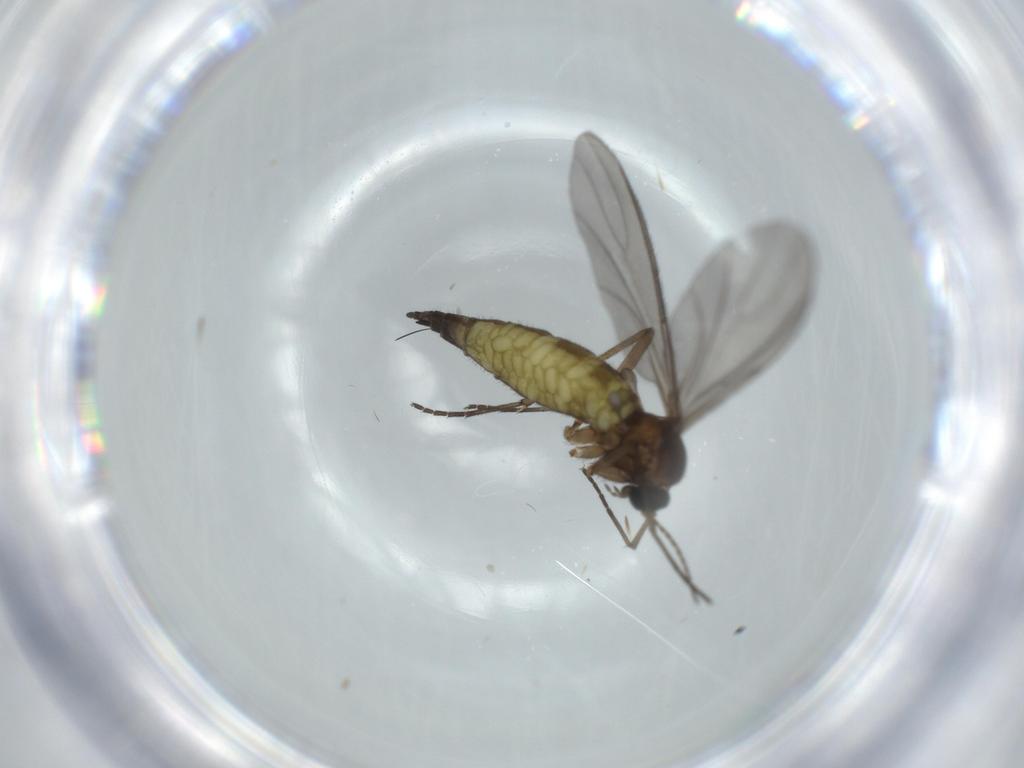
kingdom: Animalia
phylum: Arthropoda
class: Insecta
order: Diptera
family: Sciaridae
